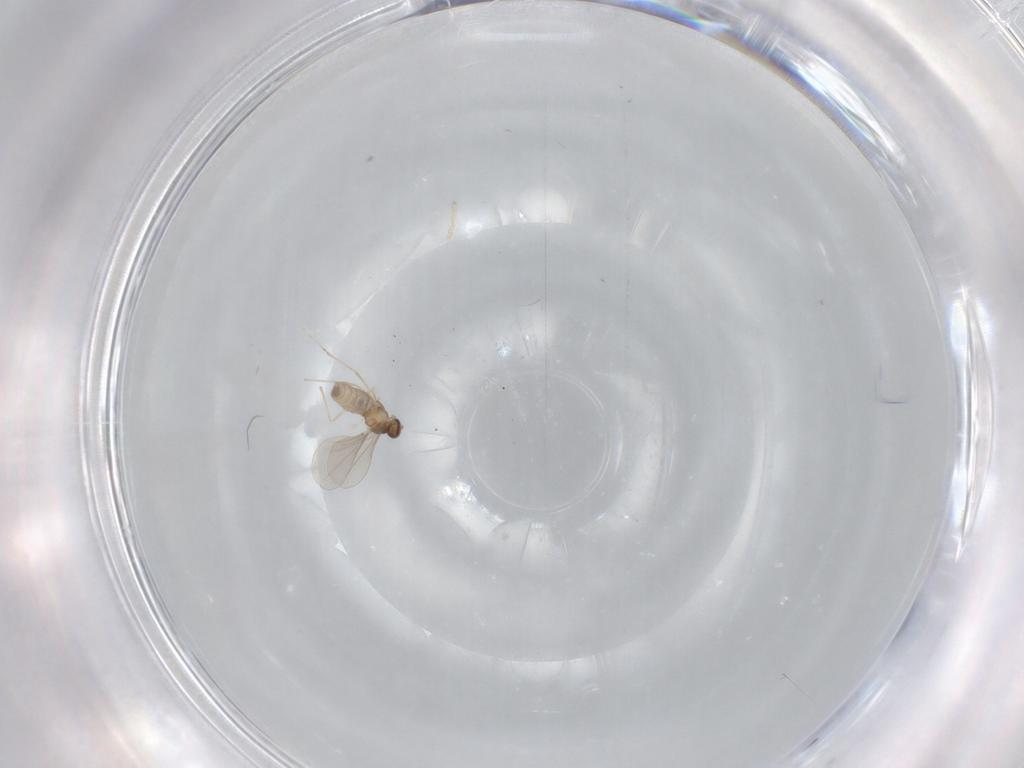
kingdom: Animalia
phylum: Arthropoda
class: Insecta
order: Diptera
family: Cecidomyiidae
